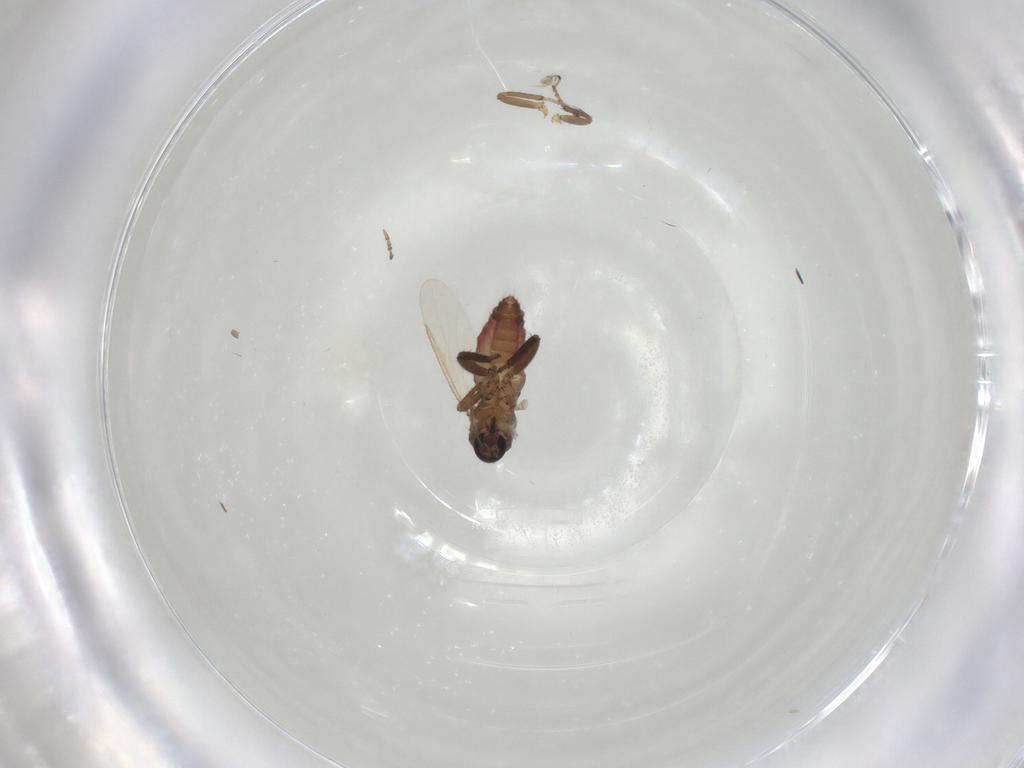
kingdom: Animalia
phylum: Arthropoda
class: Insecta
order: Diptera
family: Ceratopogonidae
